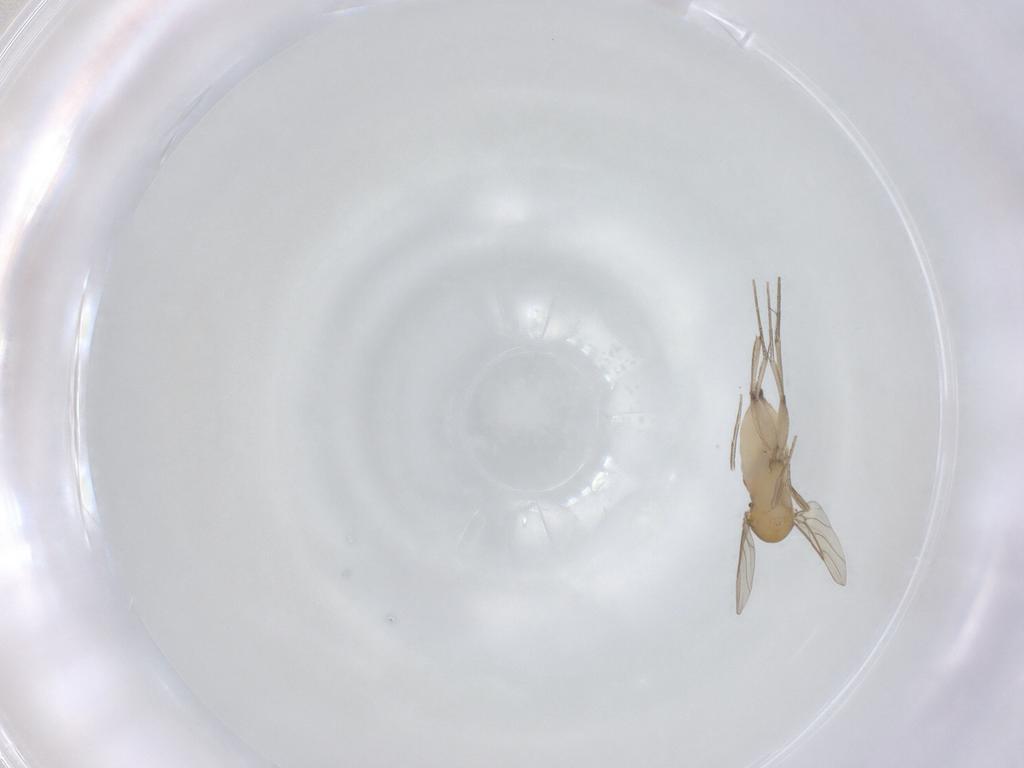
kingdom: Animalia
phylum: Arthropoda
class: Insecta
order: Diptera
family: Phoridae
